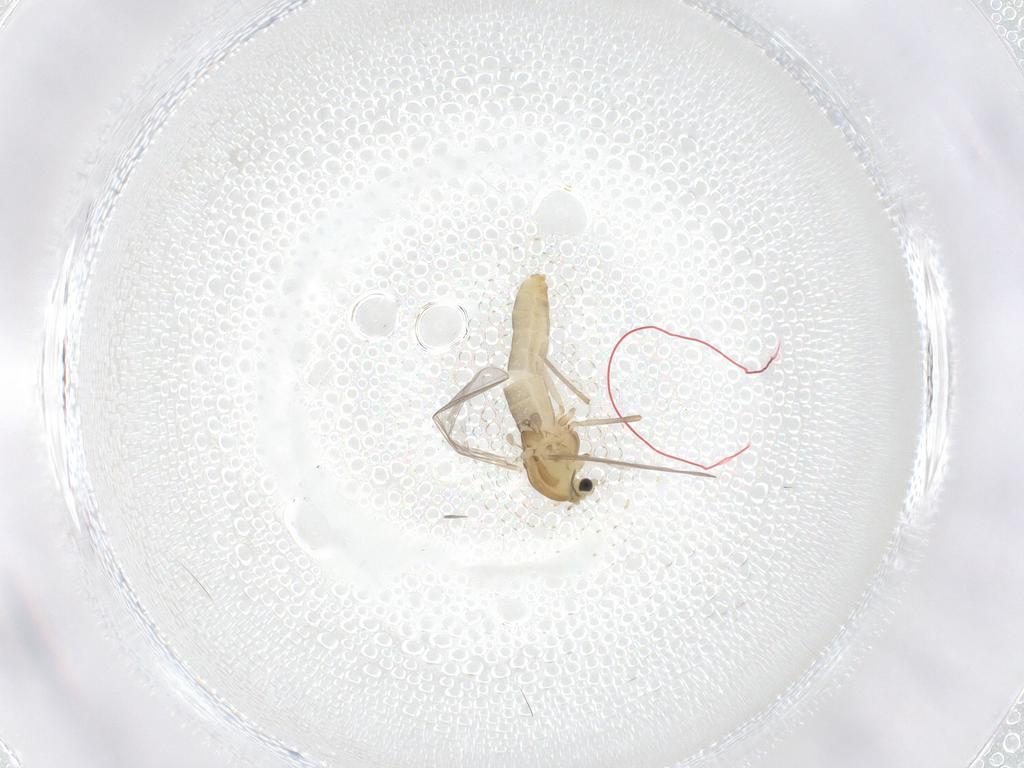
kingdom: Animalia
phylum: Arthropoda
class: Insecta
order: Diptera
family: Chironomidae
